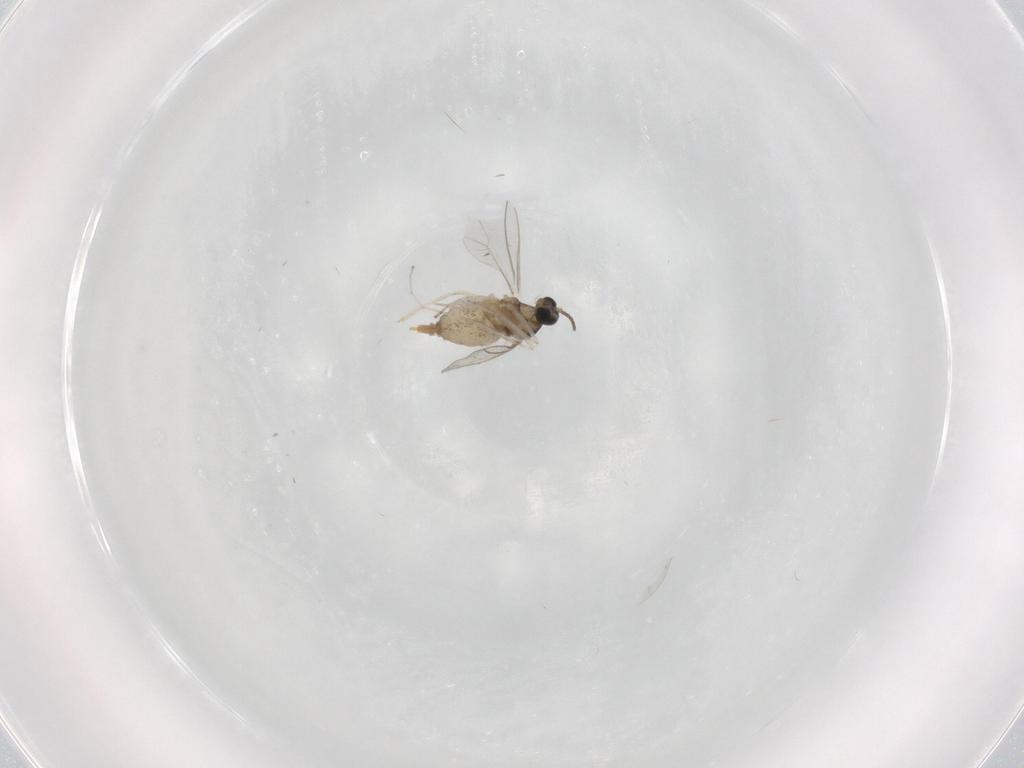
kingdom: Animalia
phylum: Arthropoda
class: Insecta
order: Diptera
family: Cecidomyiidae
